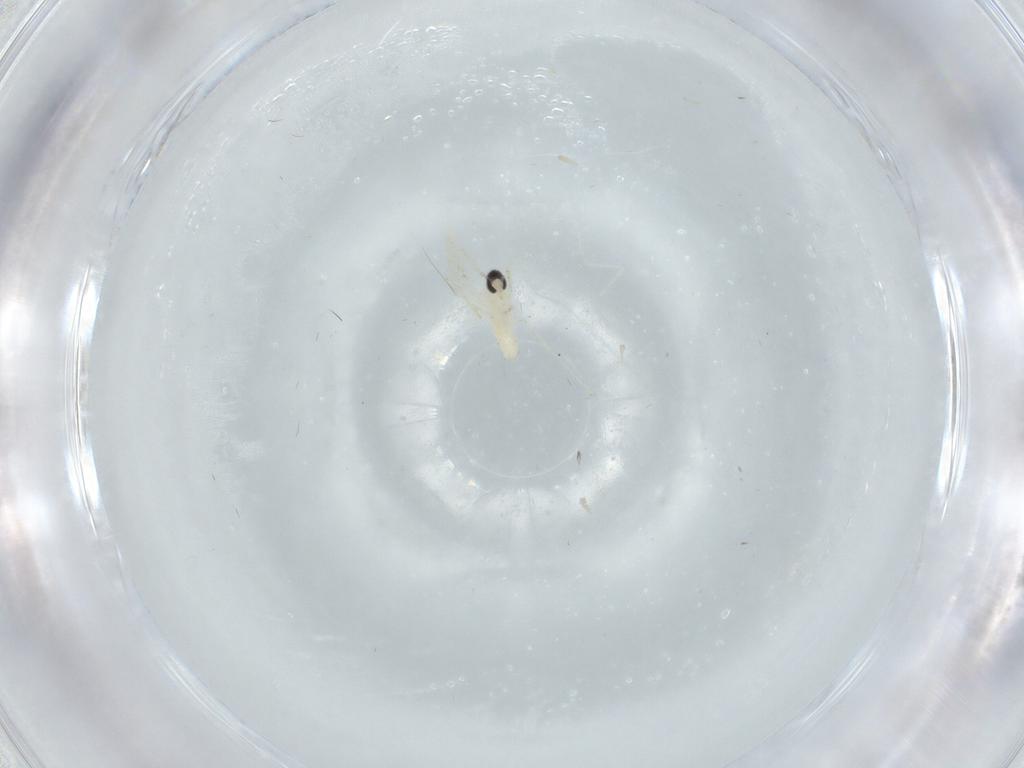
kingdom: Animalia
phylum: Arthropoda
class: Insecta
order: Diptera
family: Cecidomyiidae
